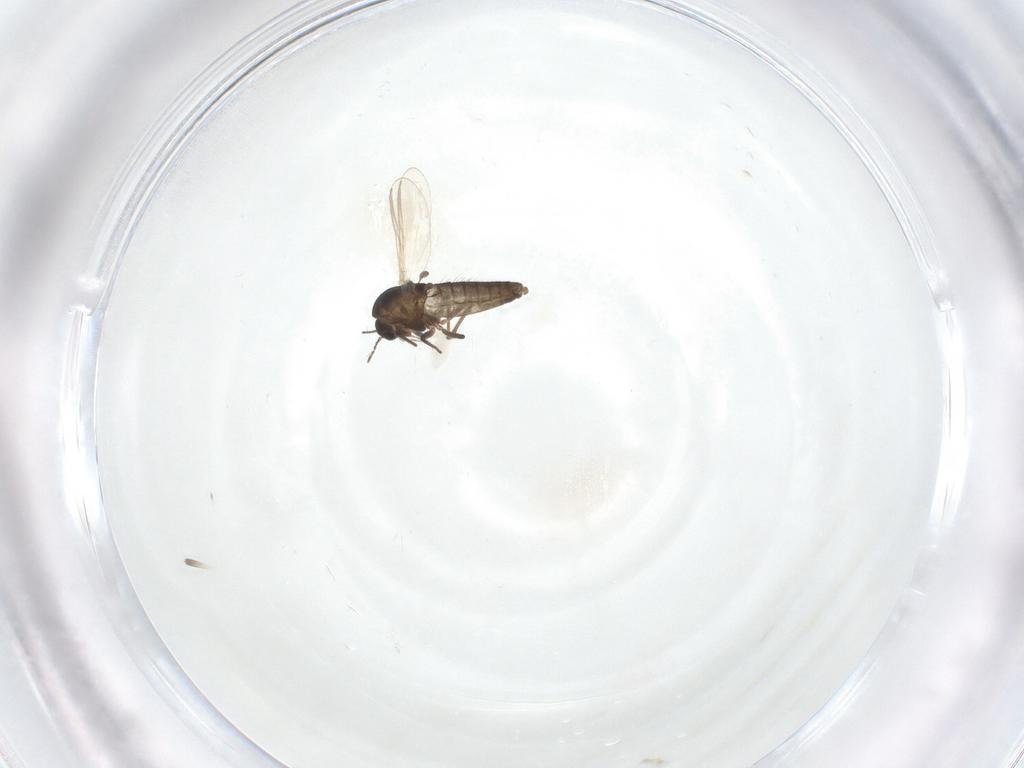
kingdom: Animalia
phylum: Arthropoda
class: Insecta
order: Diptera
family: Chironomidae
